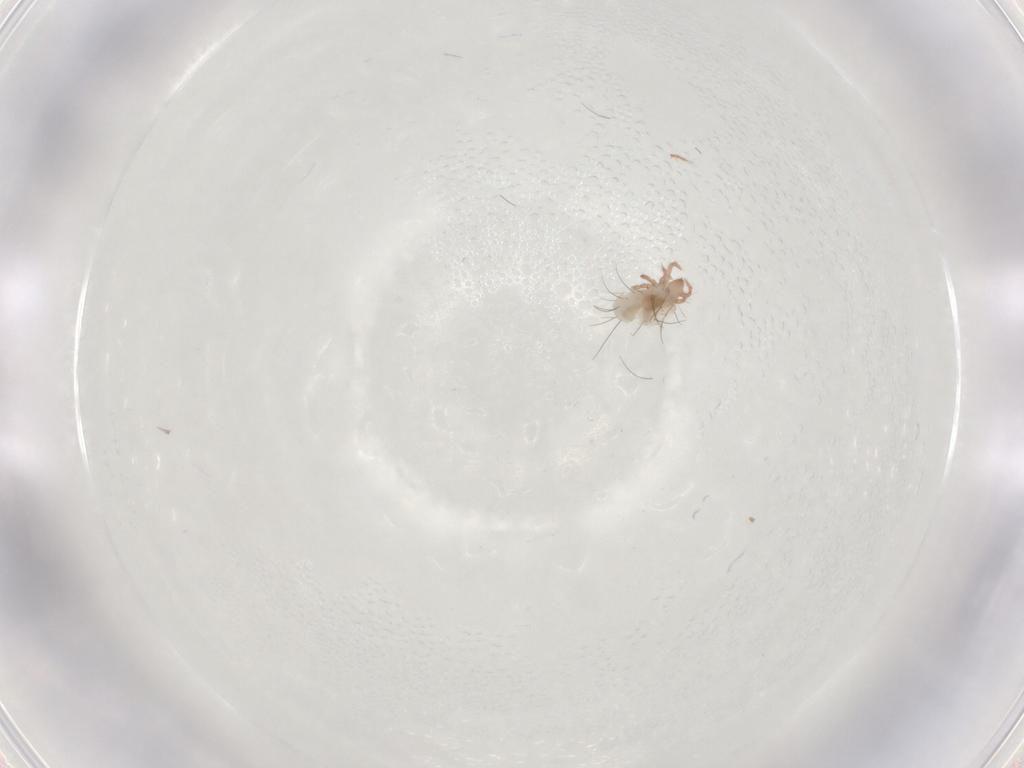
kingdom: Animalia
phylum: Arthropoda
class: Arachnida
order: Sarcoptiformes
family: Ceratozetidae
